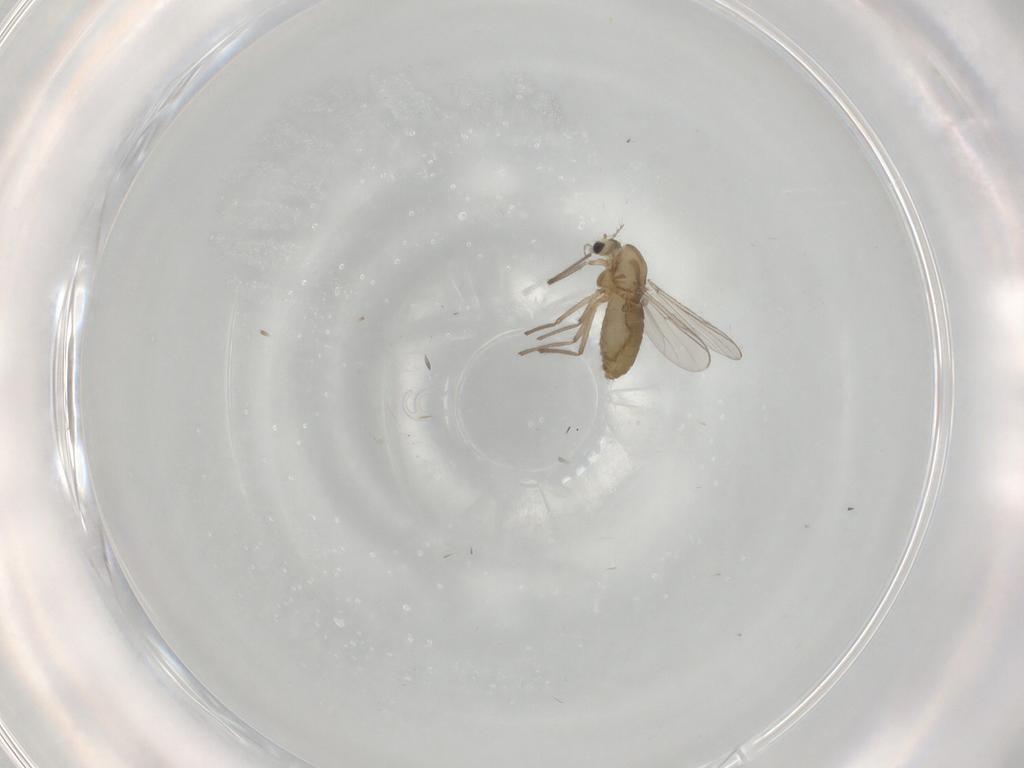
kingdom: Animalia
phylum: Arthropoda
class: Insecta
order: Diptera
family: Chironomidae
